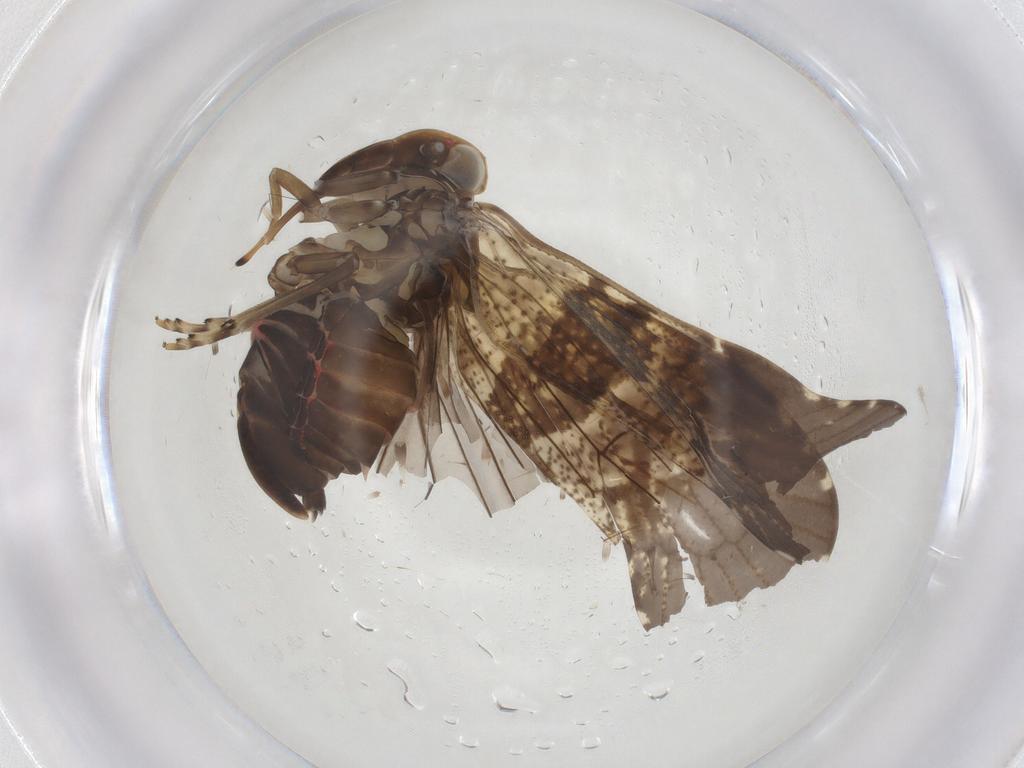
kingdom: Animalia
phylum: Arthropoda
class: Insecta
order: Hemiptera
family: Cixiidae
